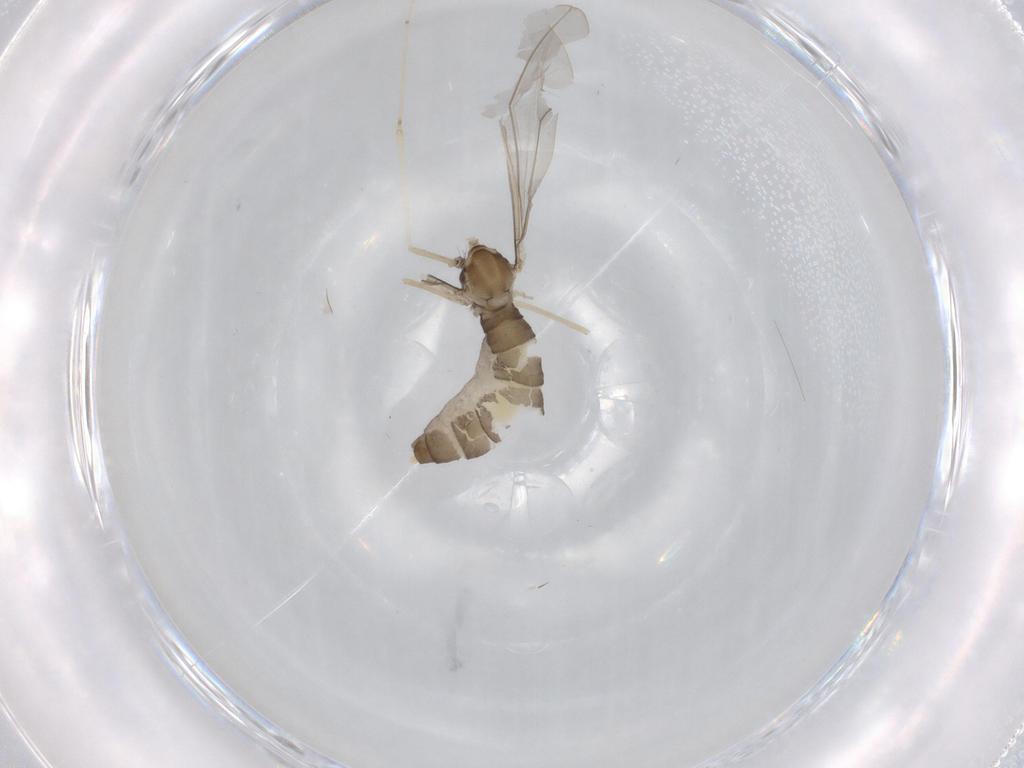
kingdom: Animalia
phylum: Arthropoda
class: Insecta
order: Diptera
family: Cecidomyiidae
